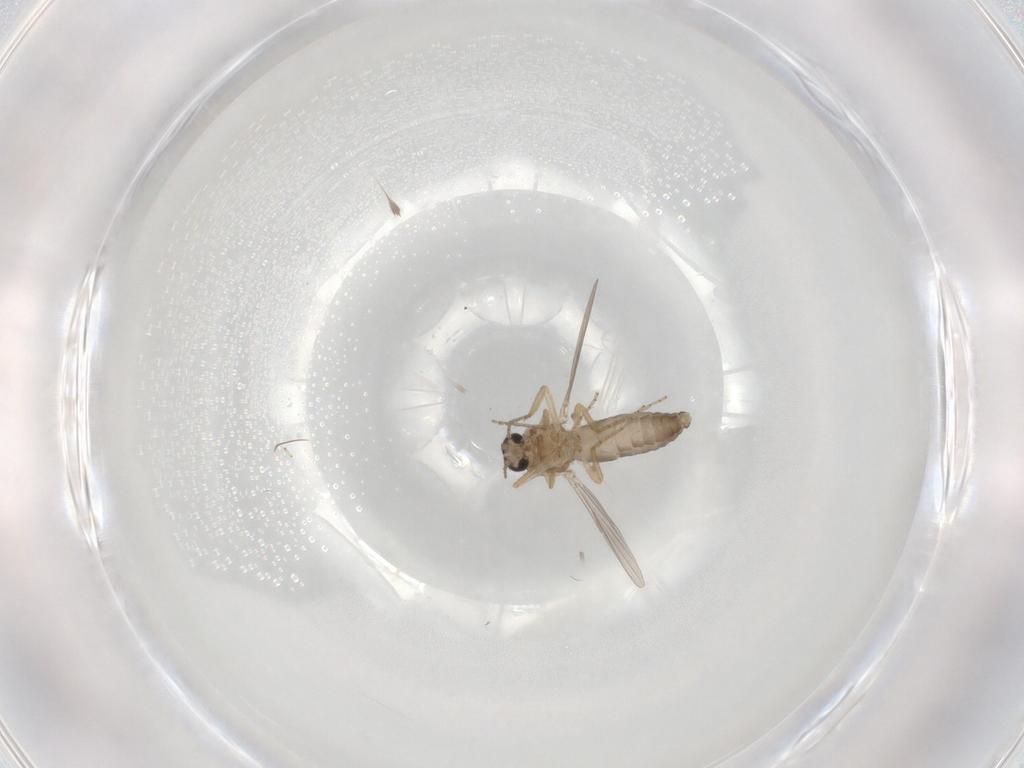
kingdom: Animalia
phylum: Arthropoda
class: Insecta
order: Diptera
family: Ceratopogonidae
